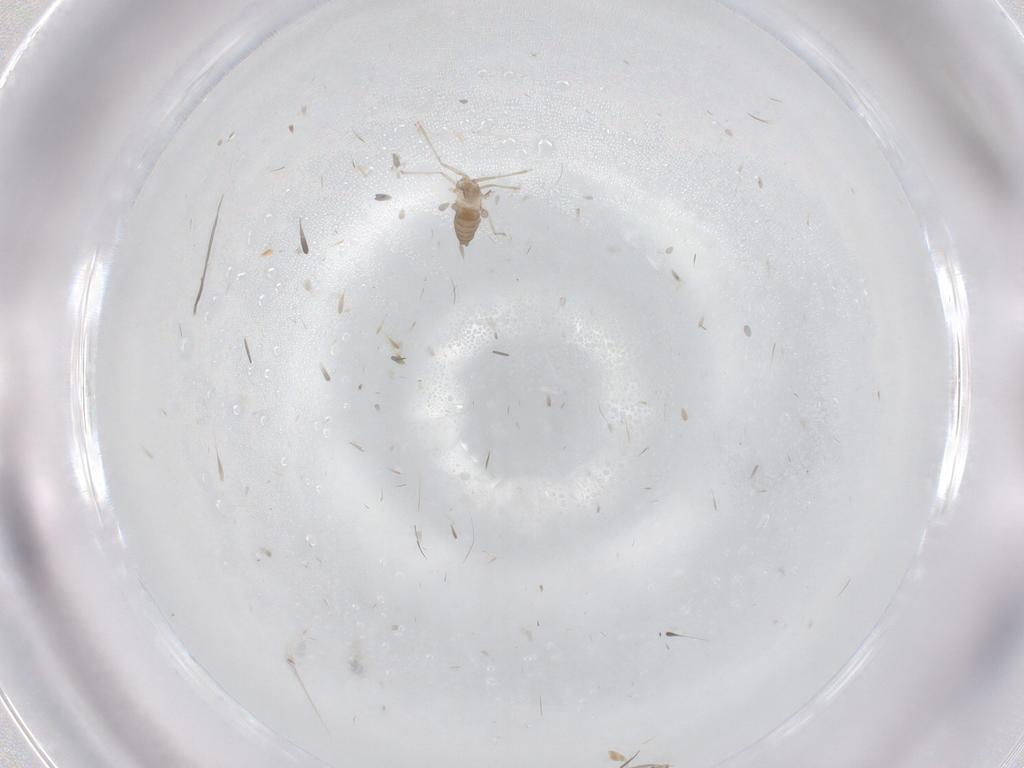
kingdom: Animalia
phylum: Arthropoda
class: Insecta
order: Diptera
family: Cecidomyiidae
